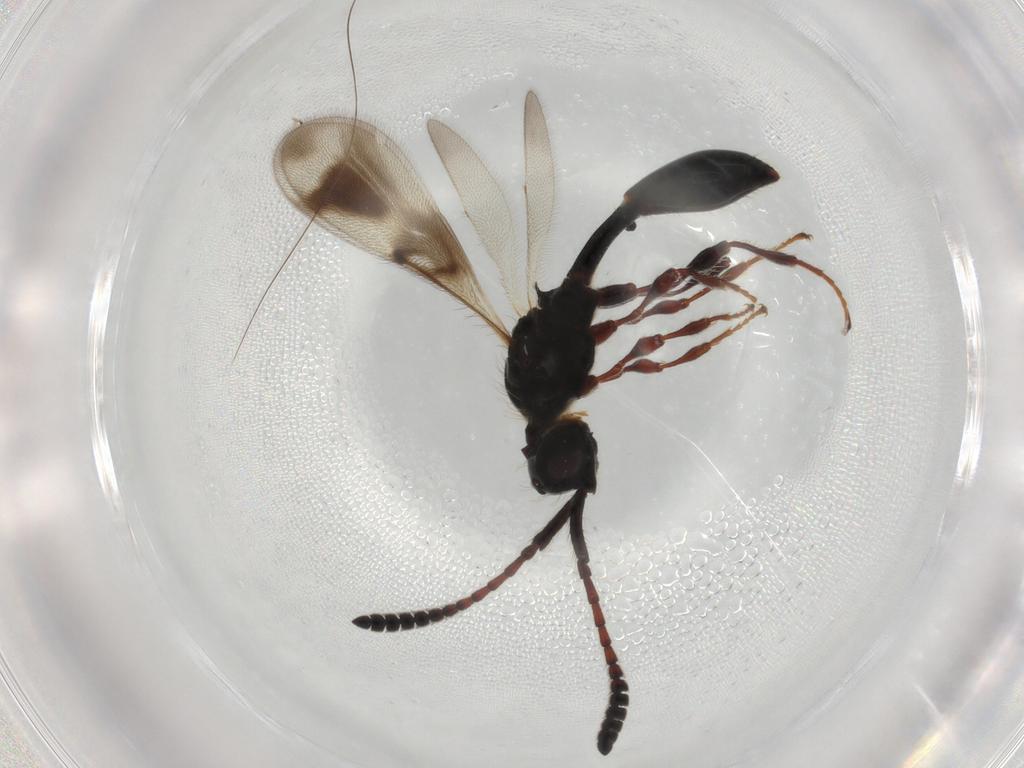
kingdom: Animalia
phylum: Arthropoda
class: Insecta
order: Hymenoptera
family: Diapriidae
